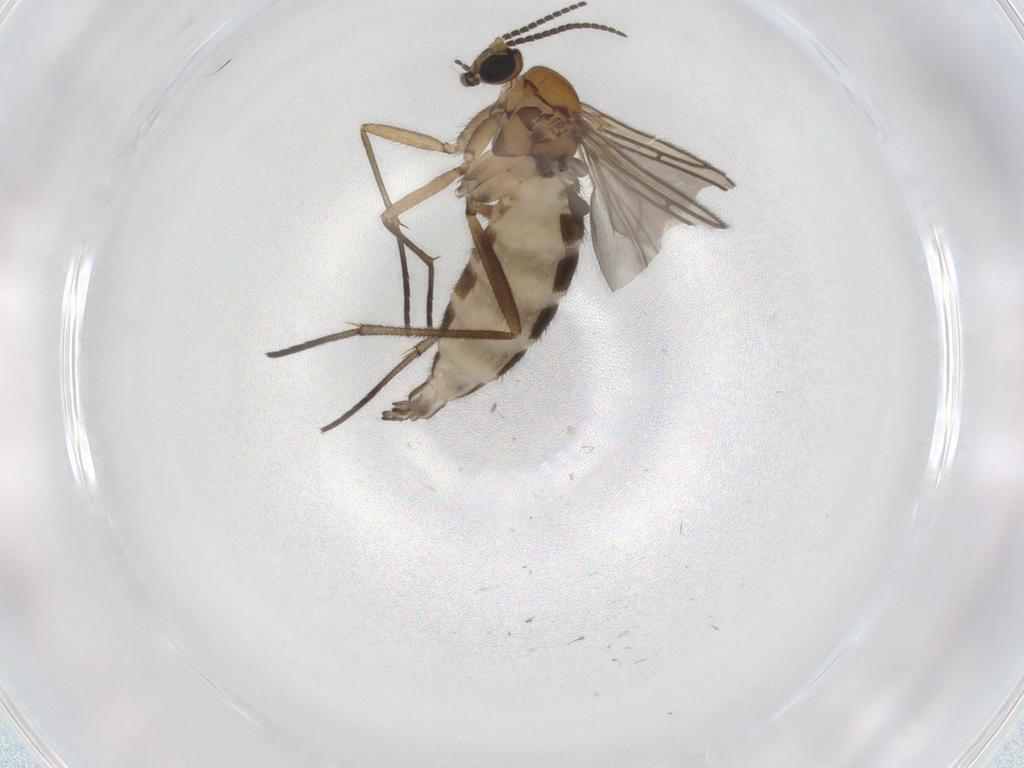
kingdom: Animalia
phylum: Arthropoda
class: Insecta
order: Diptera
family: Sciaridae
